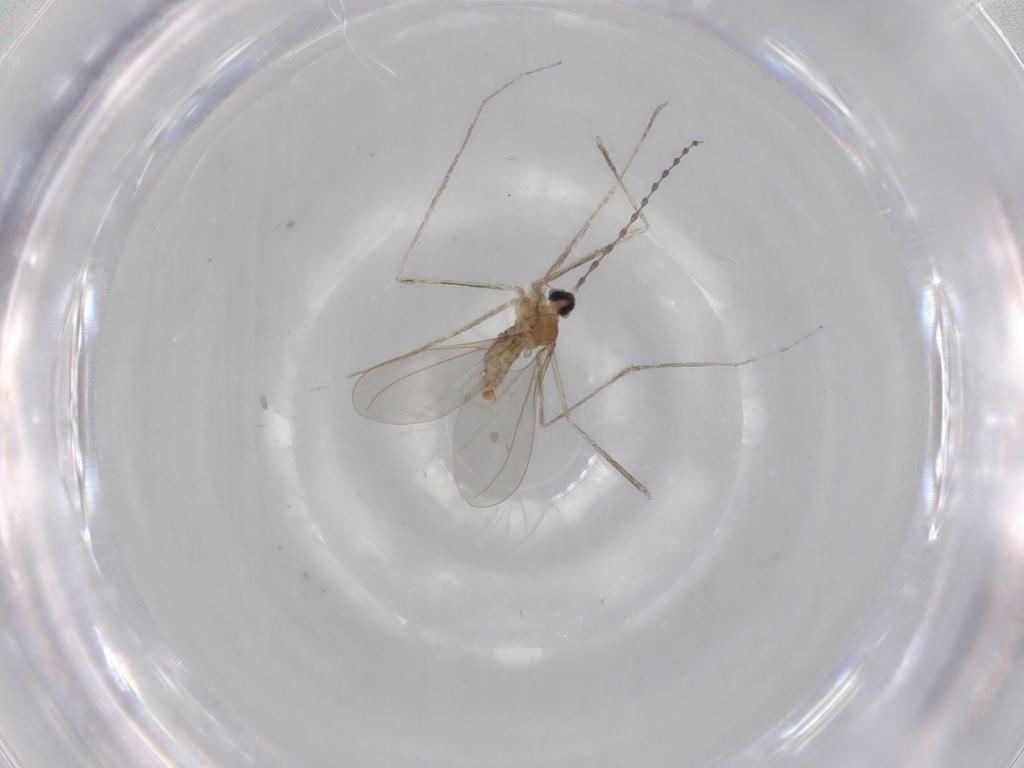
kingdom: Animalia
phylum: Arthropoda
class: Insecta
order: Diptera
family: Cecidomyiidae
